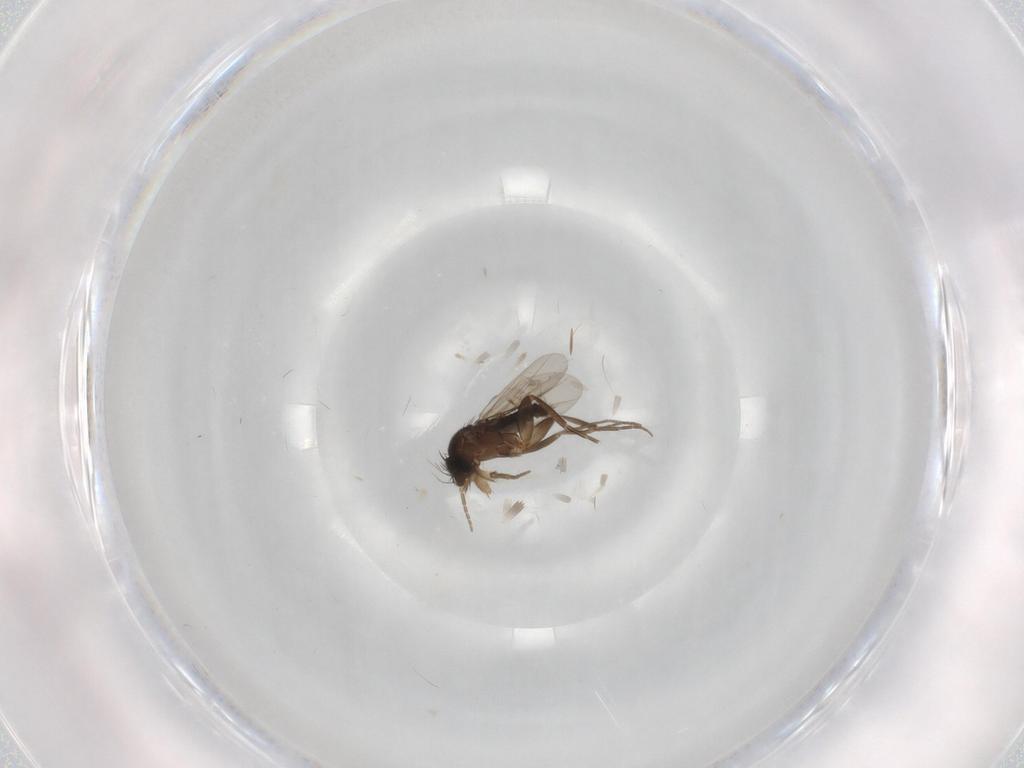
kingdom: Animalia
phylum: Arthropoda
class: Insecta
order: Diptera
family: Phoridae
